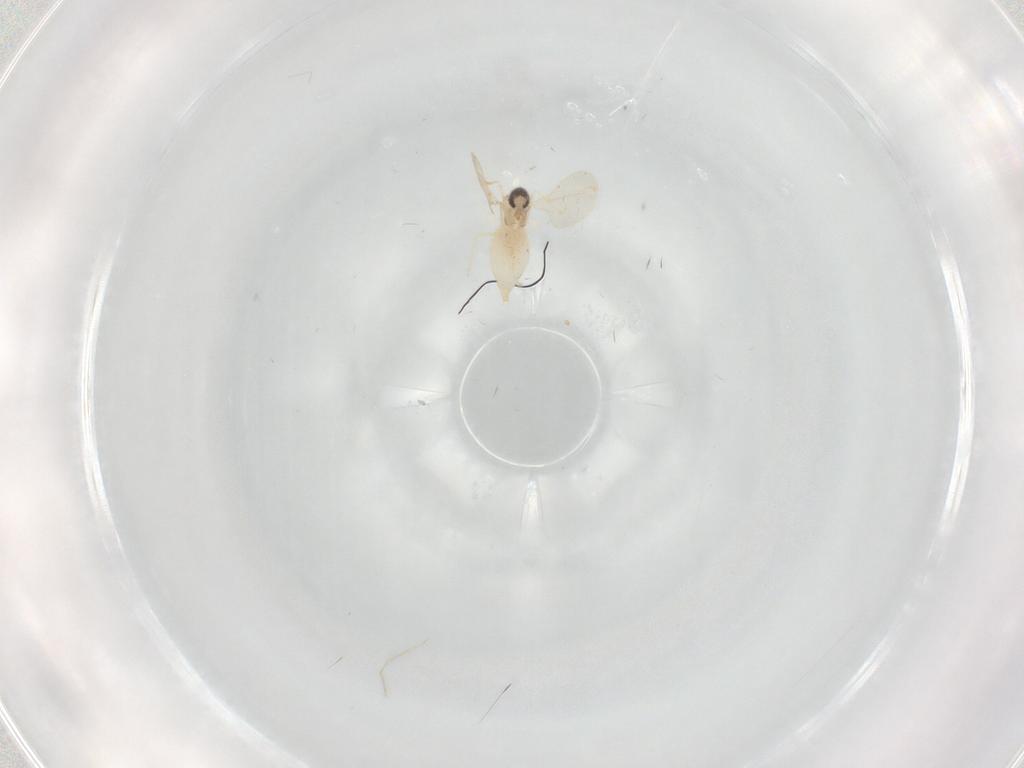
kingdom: Animalia
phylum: Arthropoda
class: Insecta
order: Diptera
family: Cecidomyiidae
